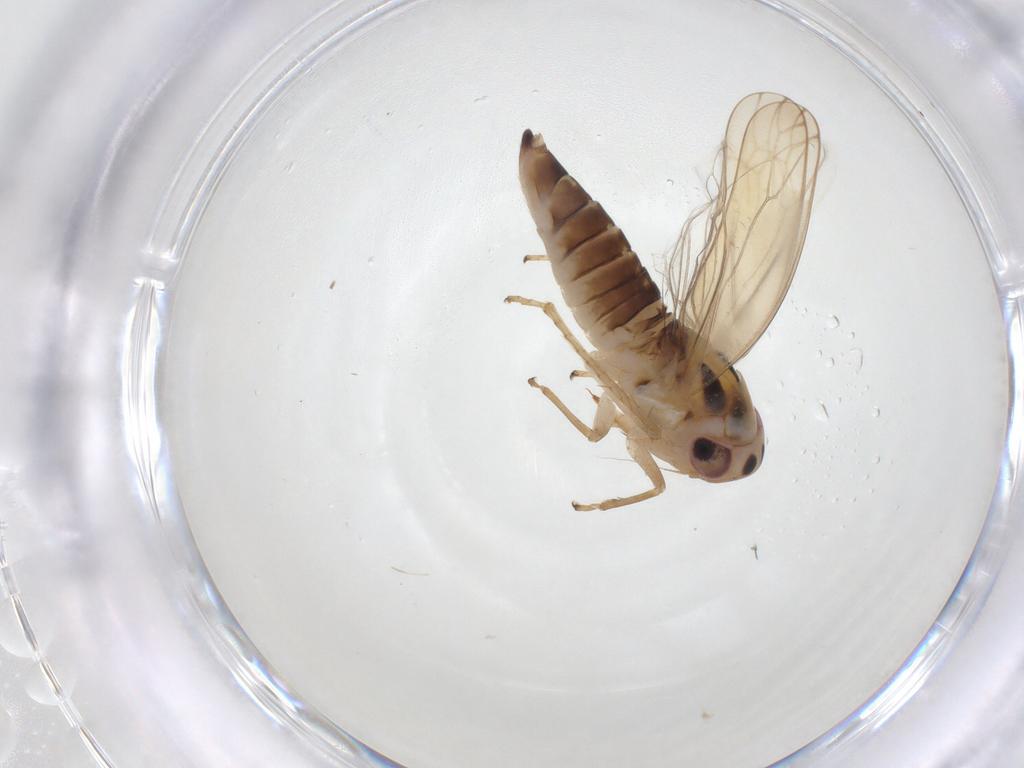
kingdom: Animalia
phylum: Arthropoda
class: Insecta
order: Hemiptera
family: Cicadellidae
